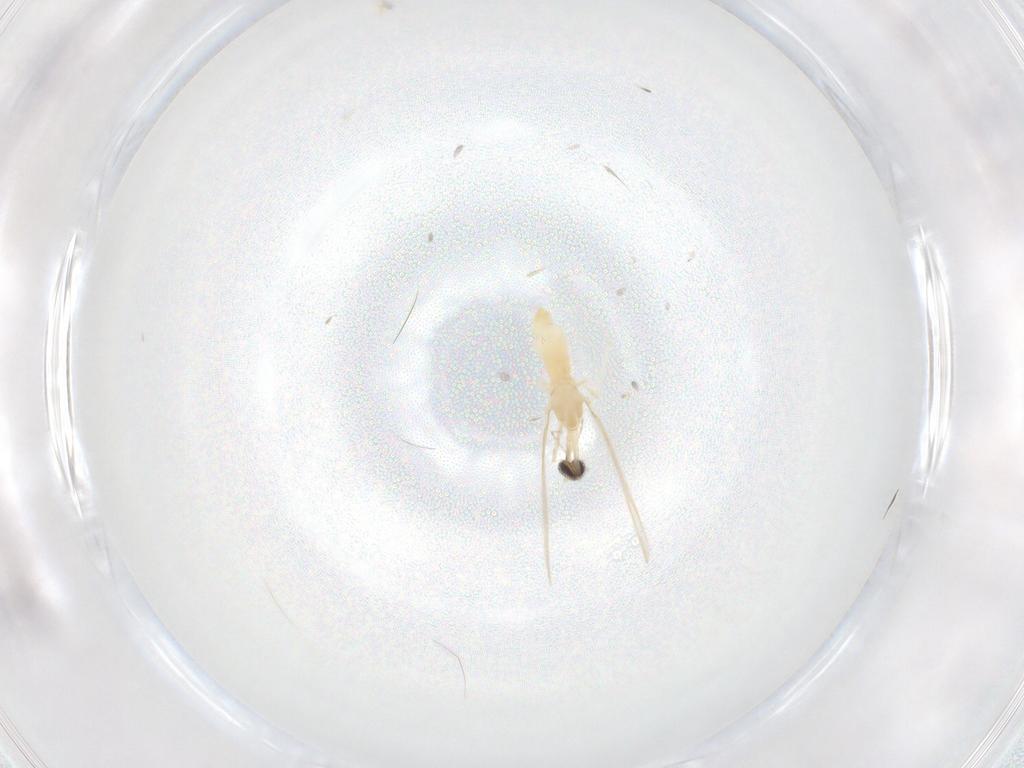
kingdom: Animalia
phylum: Arthropoda
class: Insecta
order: Diptera
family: Cecidomyiidae
